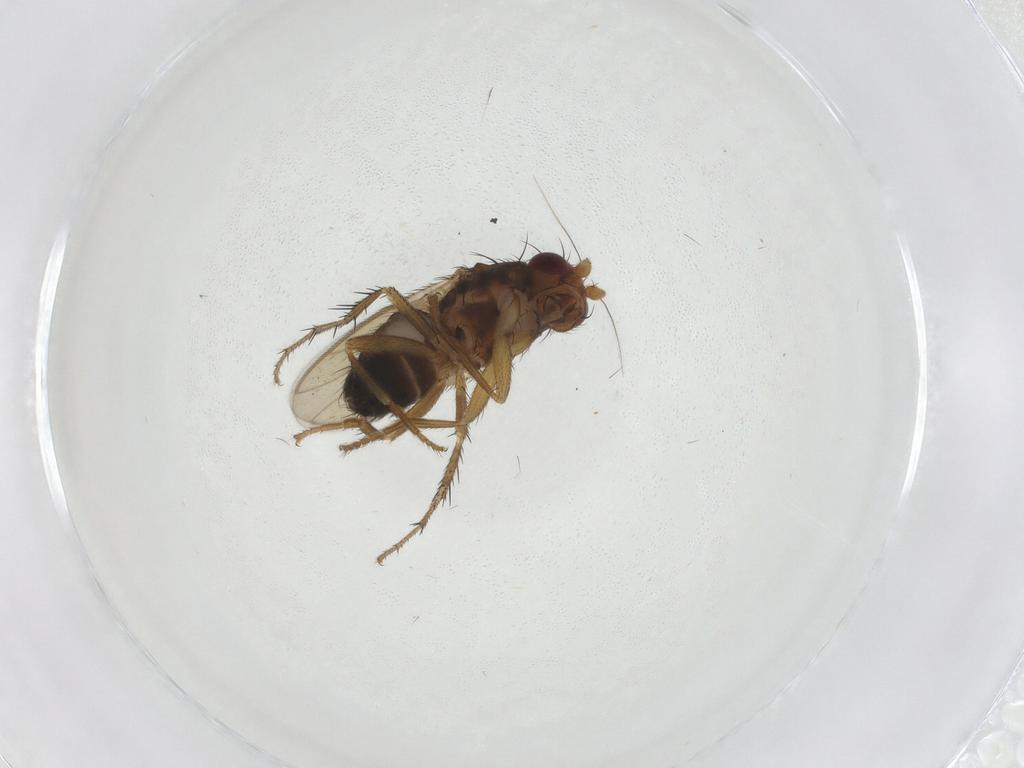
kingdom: Animalia
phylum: Arthropoda
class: Insecta
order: Diptera
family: Sphaeroceridae
